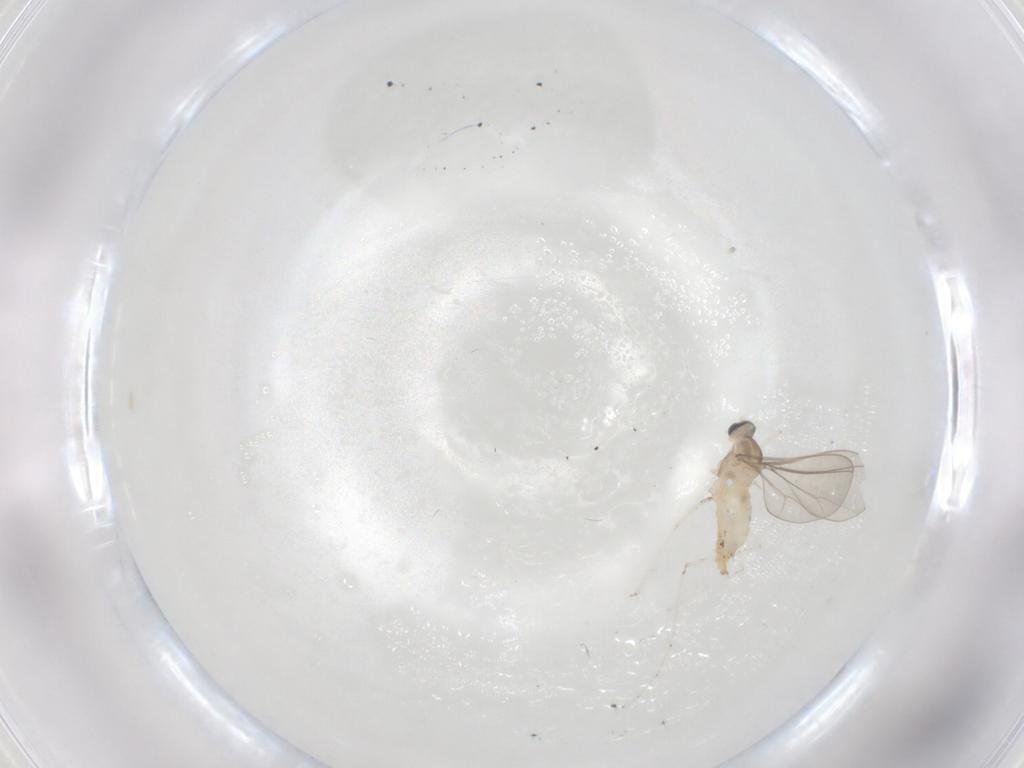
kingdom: Animalia
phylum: Arthropoda
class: Insecta
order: Diptera
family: Cecidomyiidae
